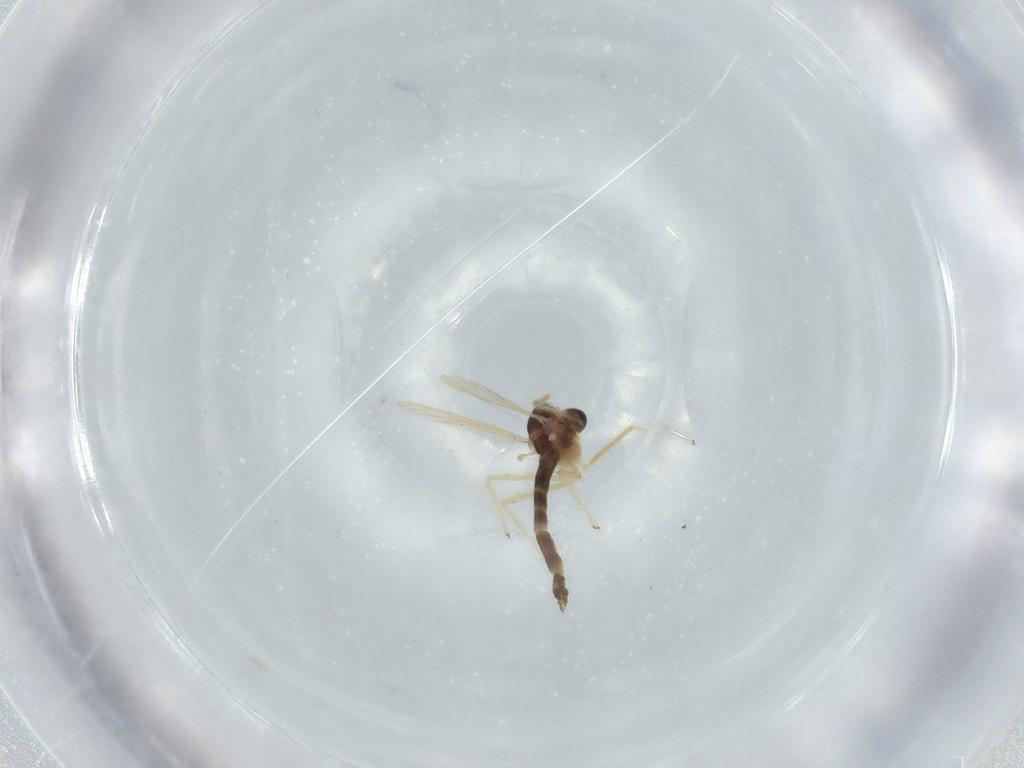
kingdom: Animalia
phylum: Arthropoda
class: Insecta
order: Diptera
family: Chironomidae
